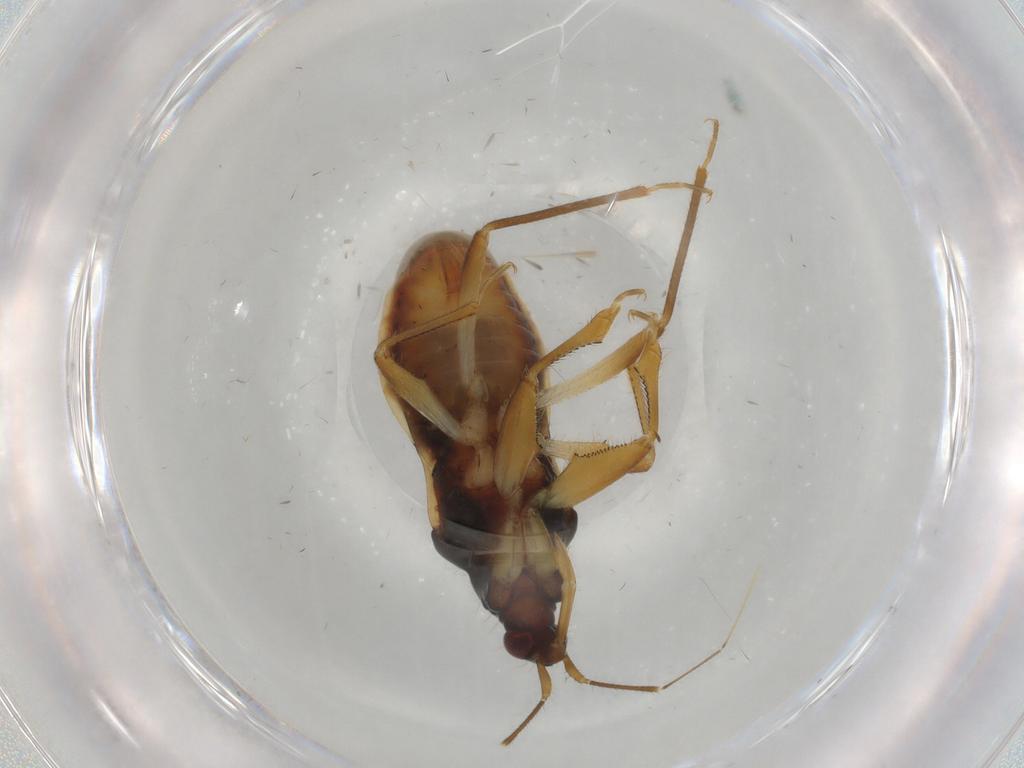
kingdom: Animalia
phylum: Arthropoda
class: Insecta
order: Hemiptera
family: Nabidae
